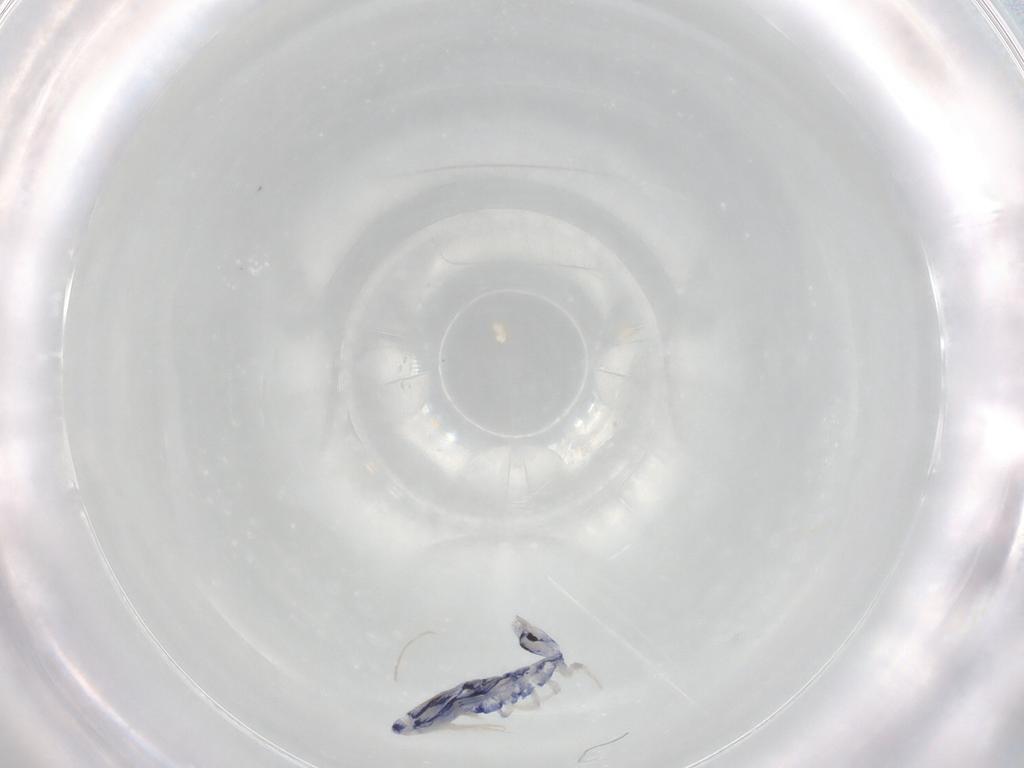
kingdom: Animalia
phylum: Arthropoda
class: Collembola
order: Entomobryomorpha
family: Entomobryidae
